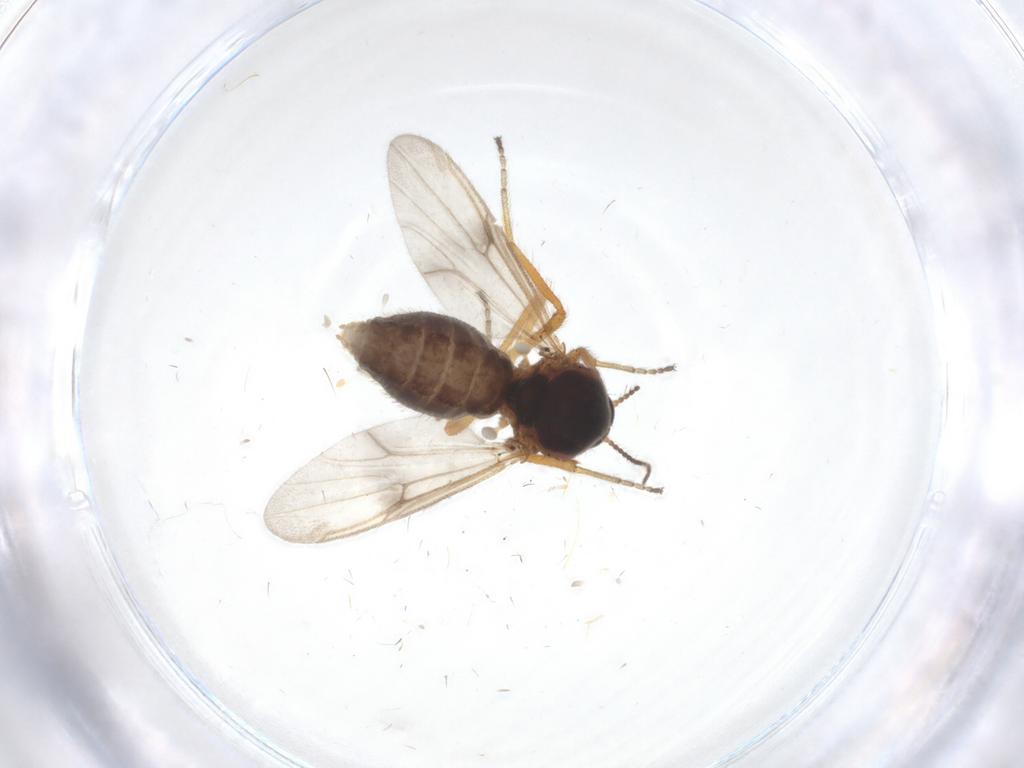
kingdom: Animalia
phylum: Arthropoda
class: Insecta
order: Diptera
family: Ceratopogonidae
